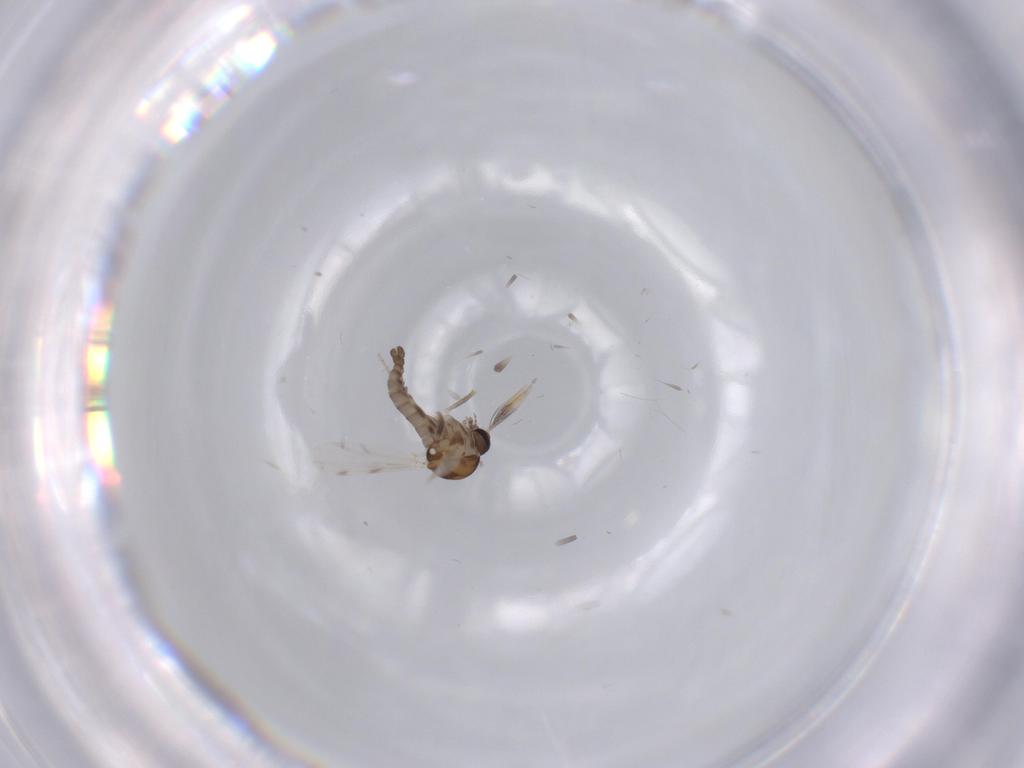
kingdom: Animalia
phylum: Arthropoda
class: Insecta
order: Diptera
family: Ceratopogonidae
